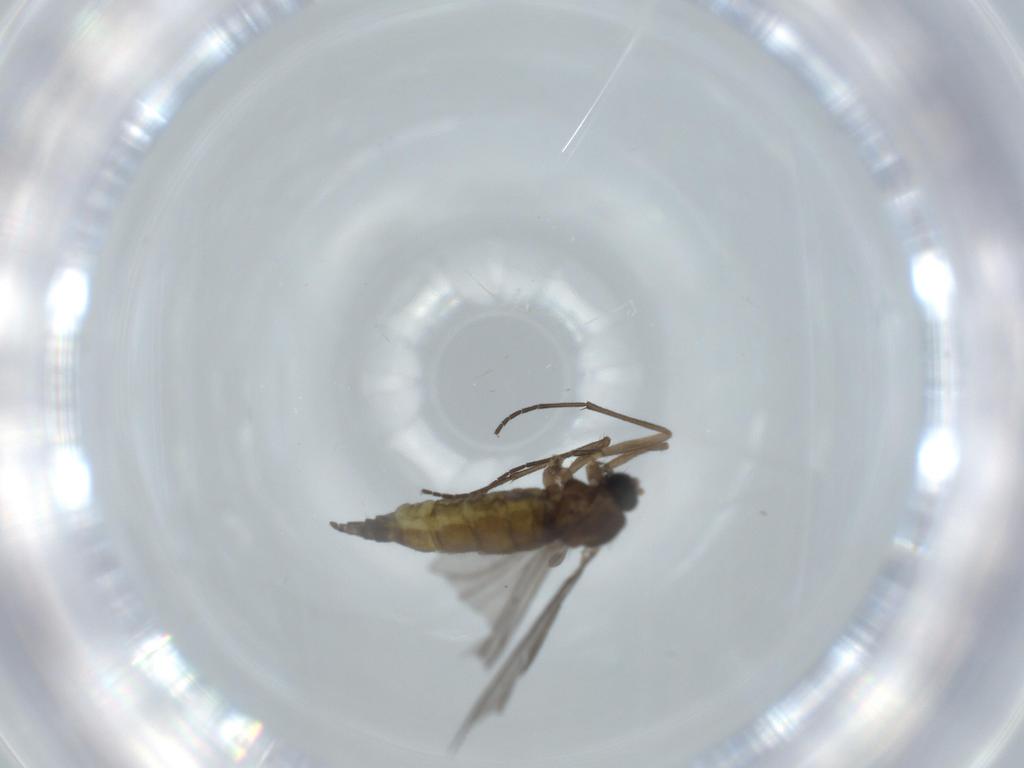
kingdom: Animalia
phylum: Arthropoda
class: Insecta
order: Diptera
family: Sciaridae
